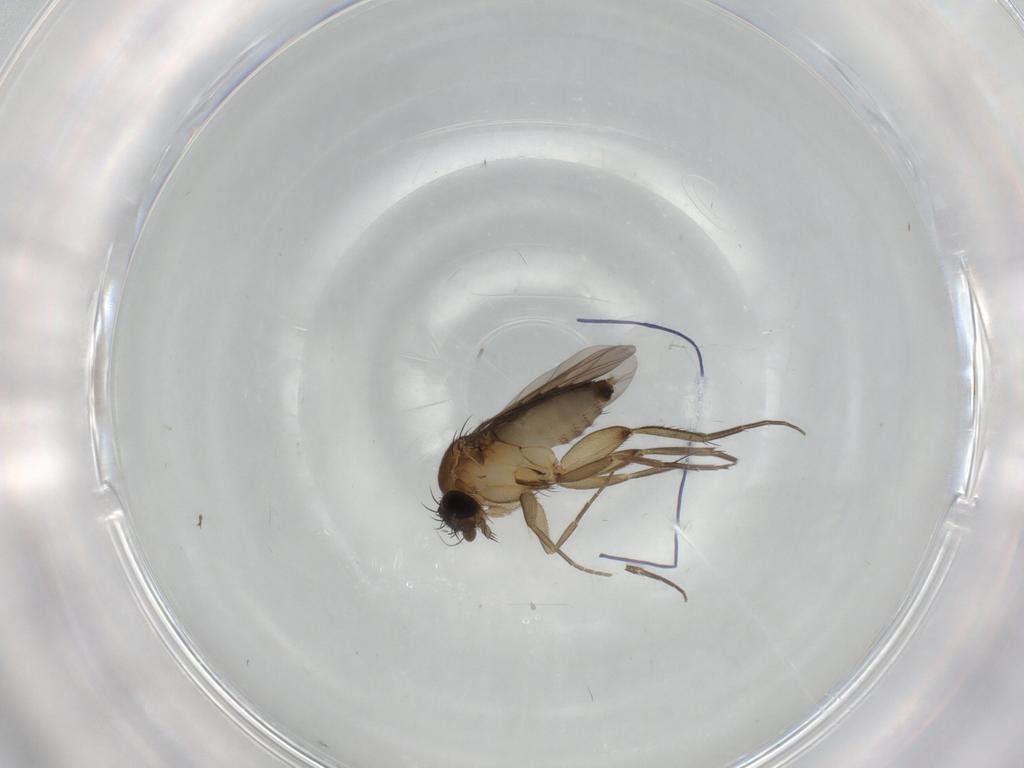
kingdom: Animalia
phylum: Arthropoda
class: Insecta
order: Diptera
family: Phoridae
